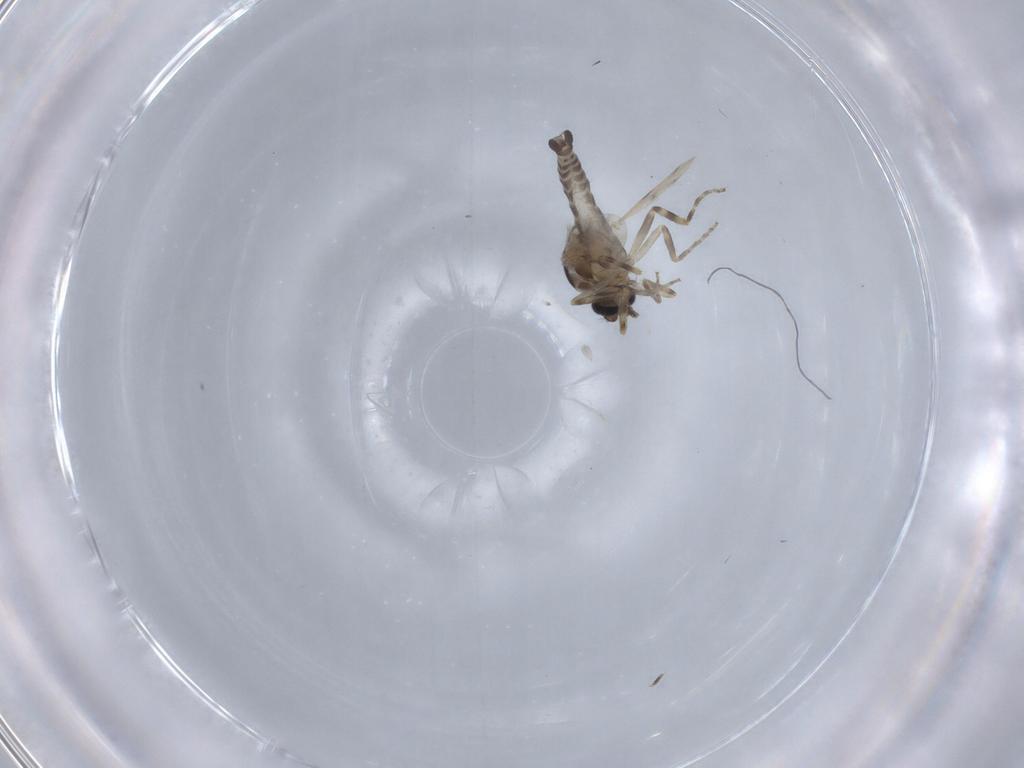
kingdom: Animalia
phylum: Arthropoda
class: Insecta
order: Diptera
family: Ceratopogonidae
